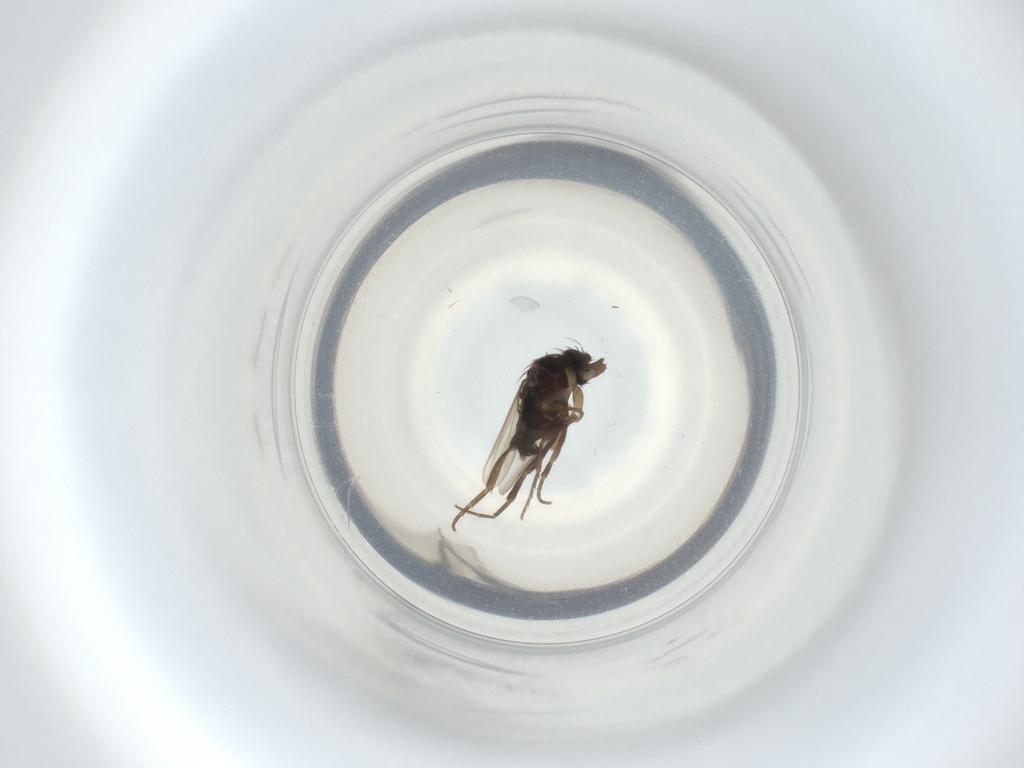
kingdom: Animalia
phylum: Arthropoda
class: Insecta
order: Diptera
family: Phoridae
